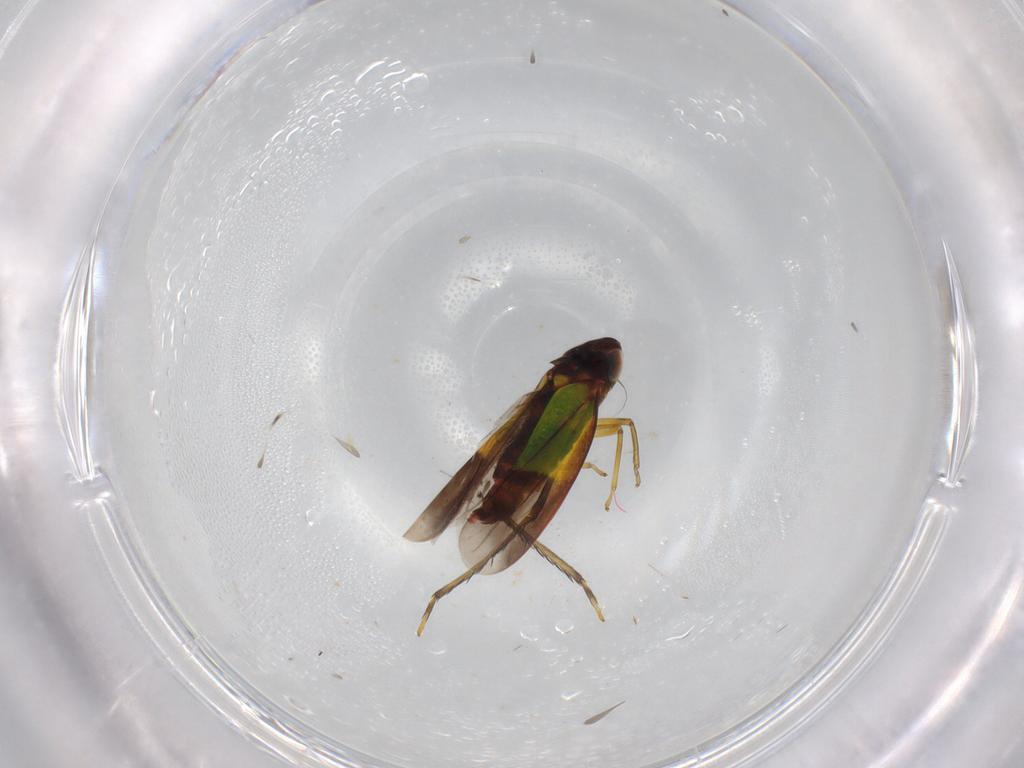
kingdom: Animalia
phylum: Arthropoda
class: Insecta
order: Hemiptera
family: Cicadellidae
